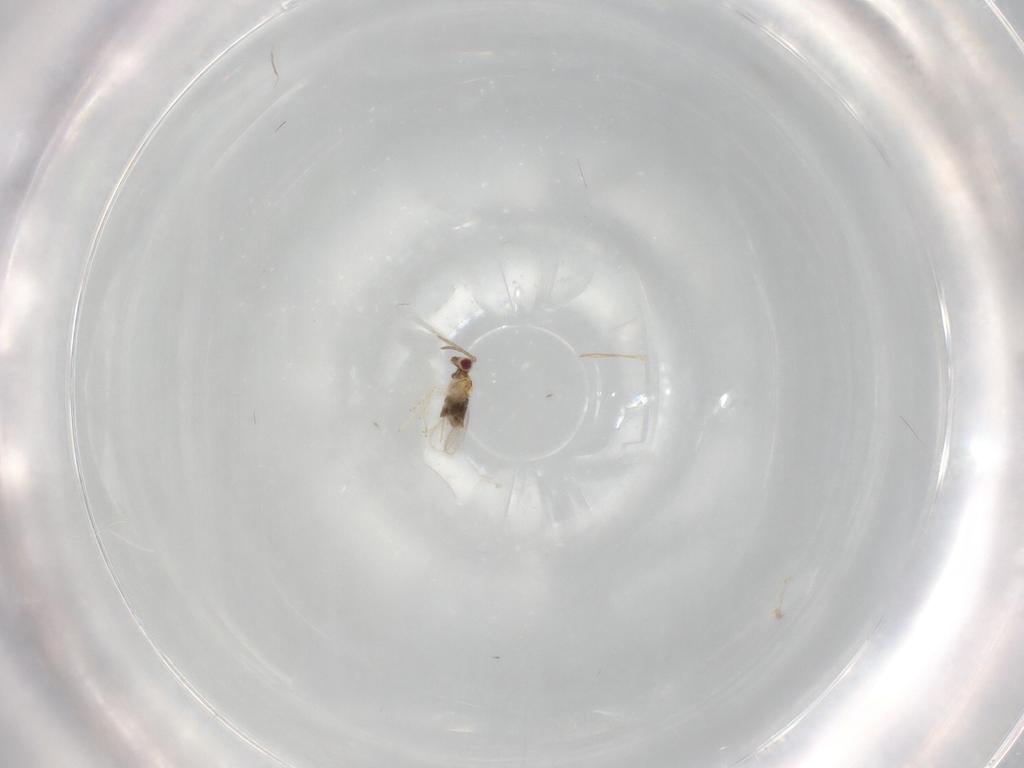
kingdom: Animalia
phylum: Arthropoda
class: Insecta
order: Hymenoptera
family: Aphelinidae
